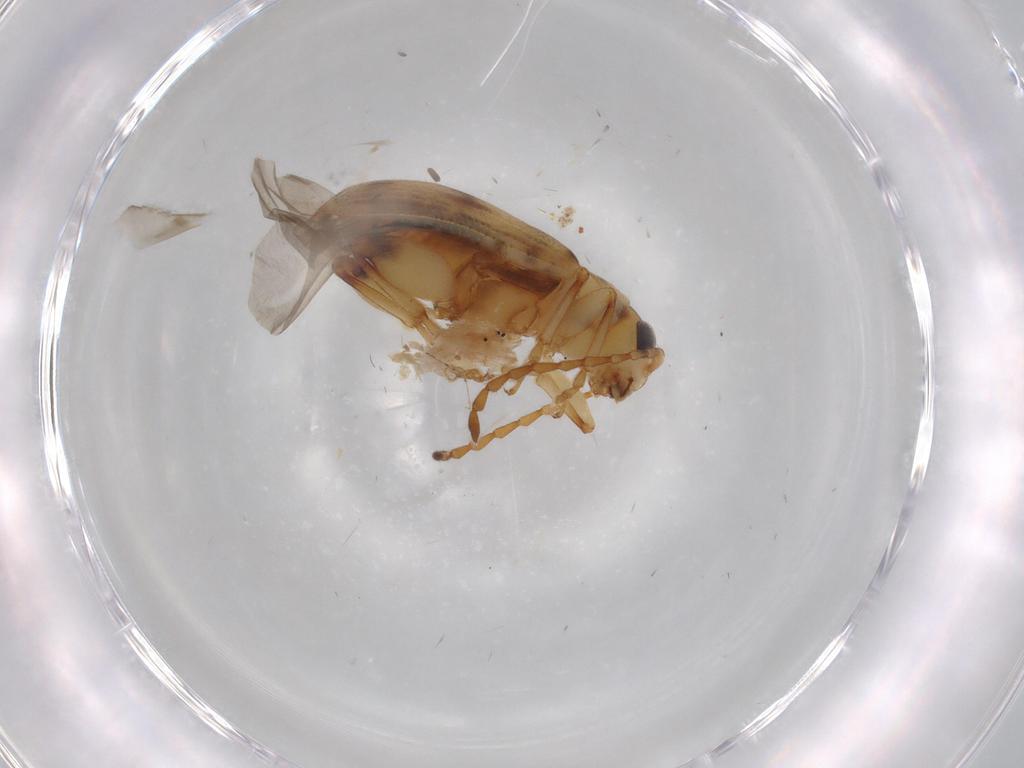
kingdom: Animalia
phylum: Arthropoda
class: Insecta
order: Coleoptera
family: Chrysomelidae
